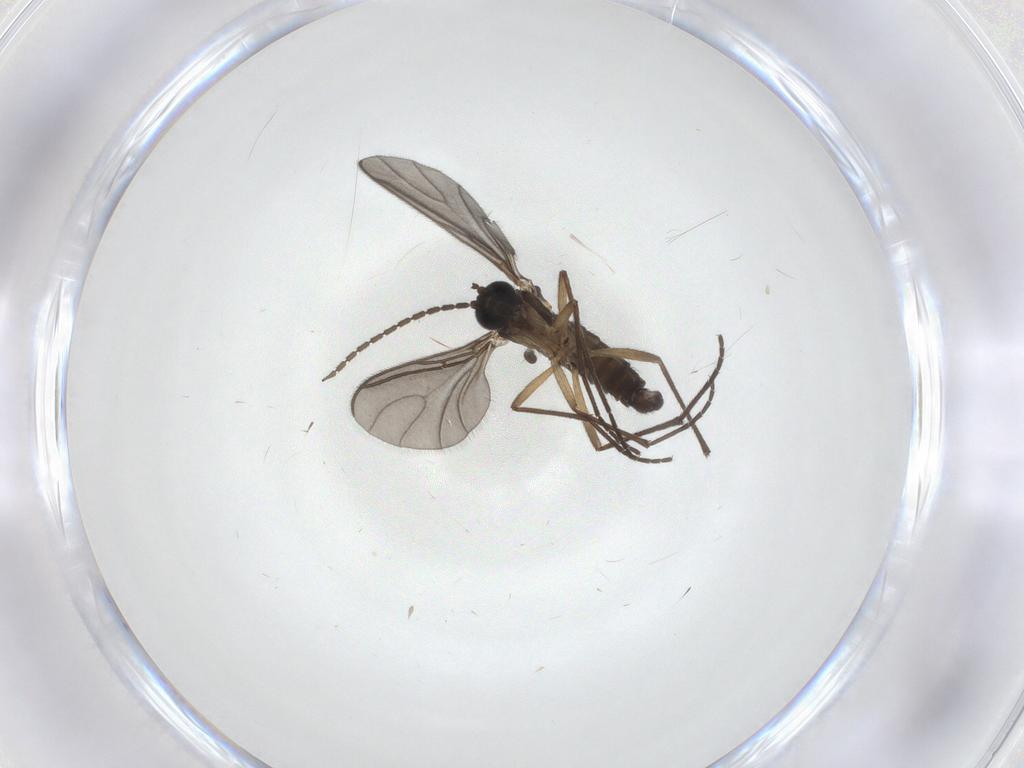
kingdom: Animalia
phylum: Arthropoda
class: Insecta
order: Diptera
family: Sciaridae
